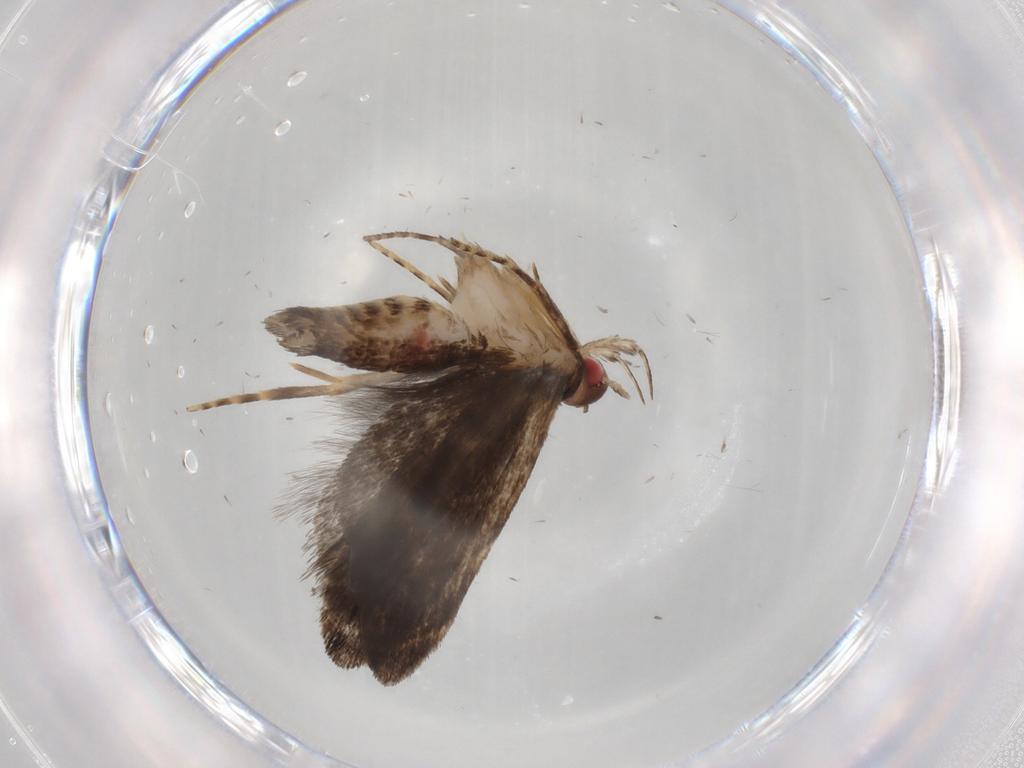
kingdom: Animalia
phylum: Arthropoda
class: Insecta
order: Lepidoptera
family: Gelechiidae
